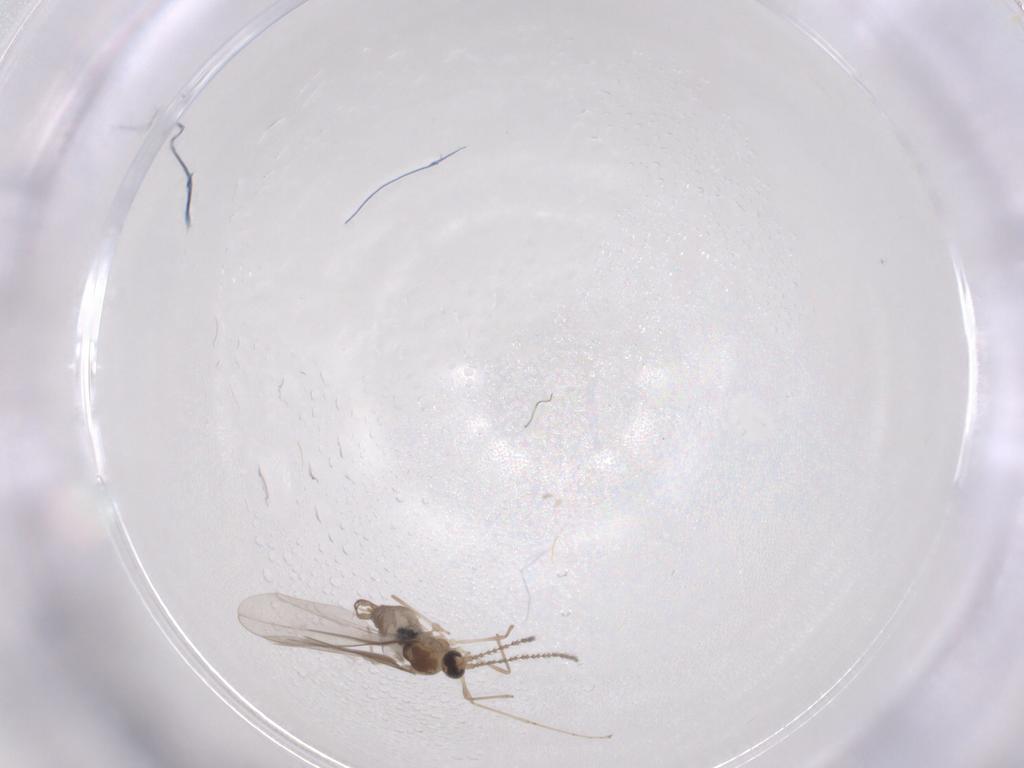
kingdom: Animalia
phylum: Arthropoda
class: Insecta
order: Diptera
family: Cecidomyiidae
